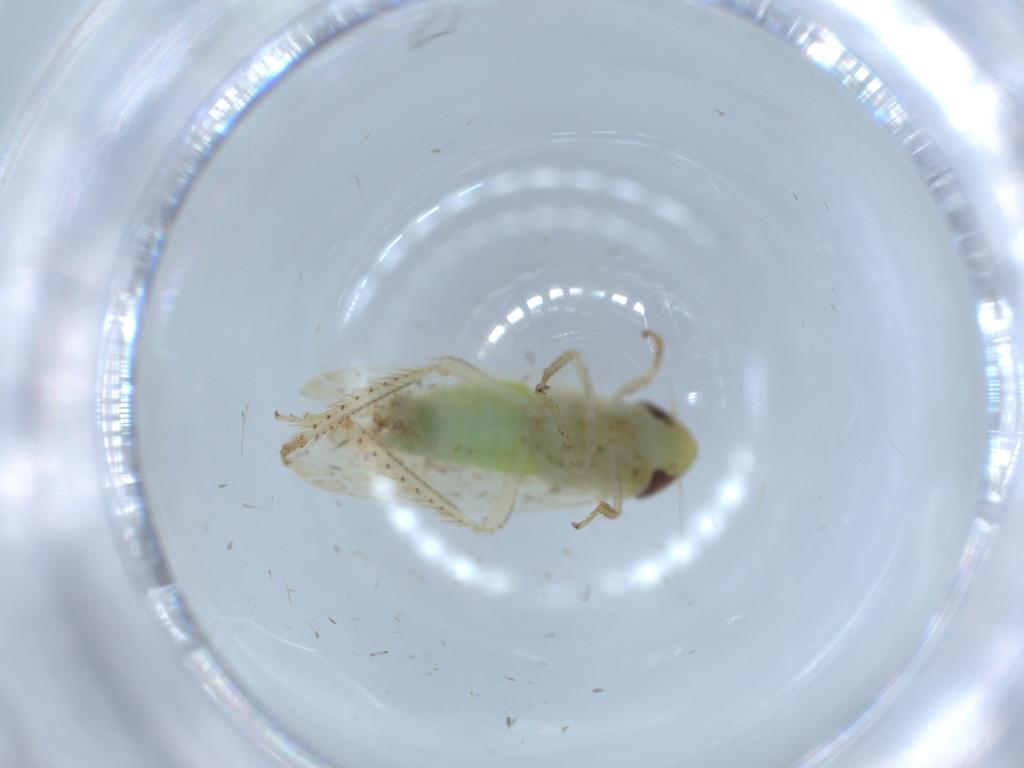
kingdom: Animalia
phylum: Arthropoda
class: Insecta
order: Hemiptera
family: Cicadellidae
